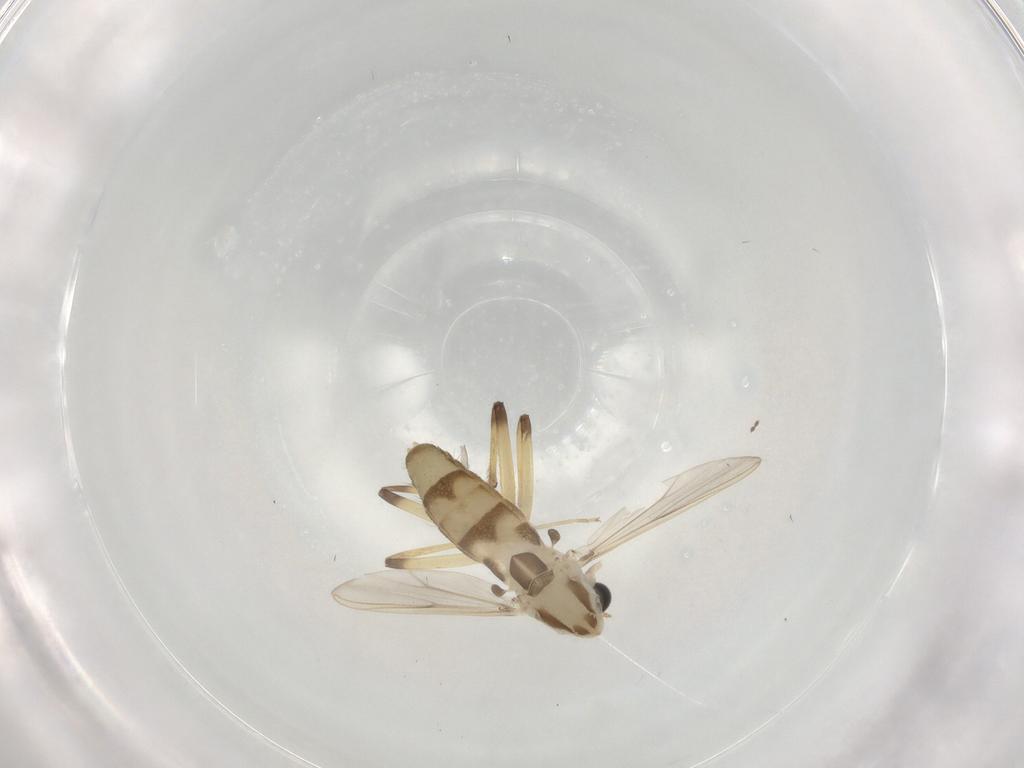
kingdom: Animalia
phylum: Arthropoda
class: Insecta
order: Diptera
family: Chironomidae
